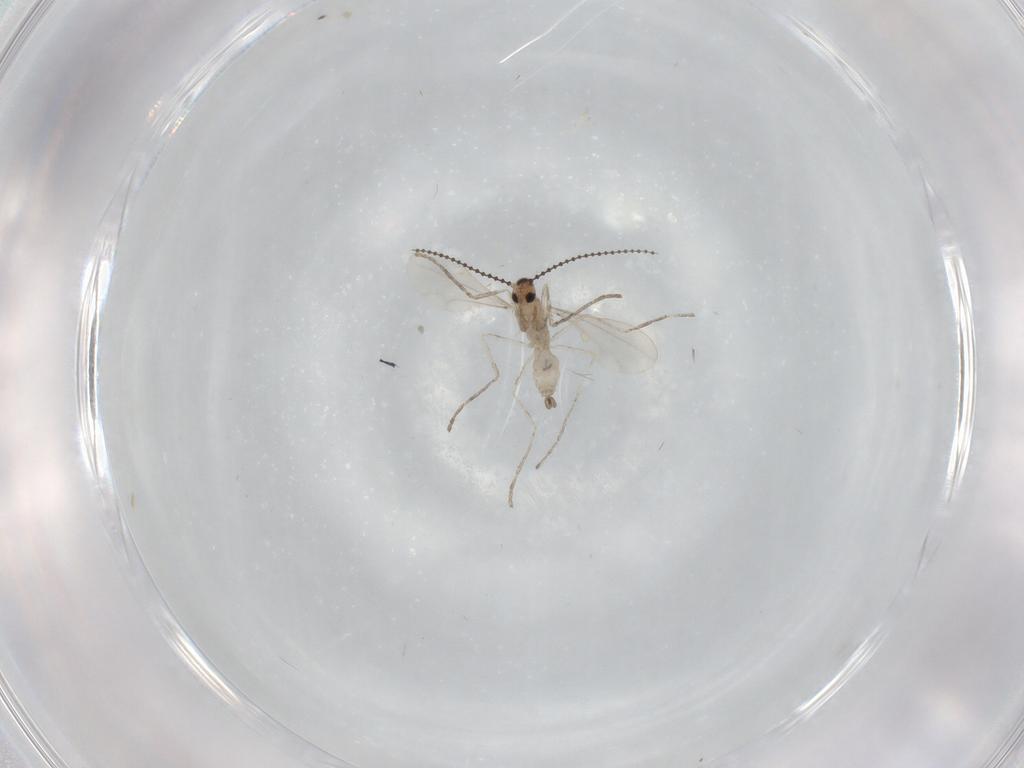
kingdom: Animalia
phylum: Arthropoda
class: Insecta
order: Diptera
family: Cecidomyiidae
